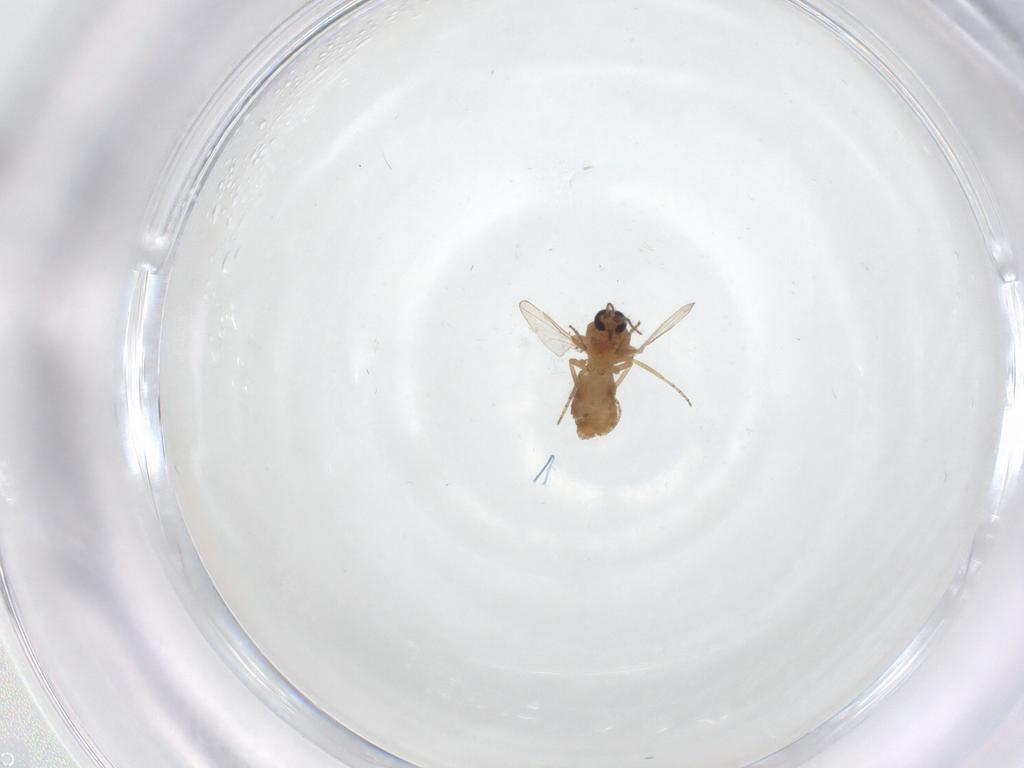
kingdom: Animalia
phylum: Arthropoda
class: Insecta
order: Diptera
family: Ceratopogonidae
